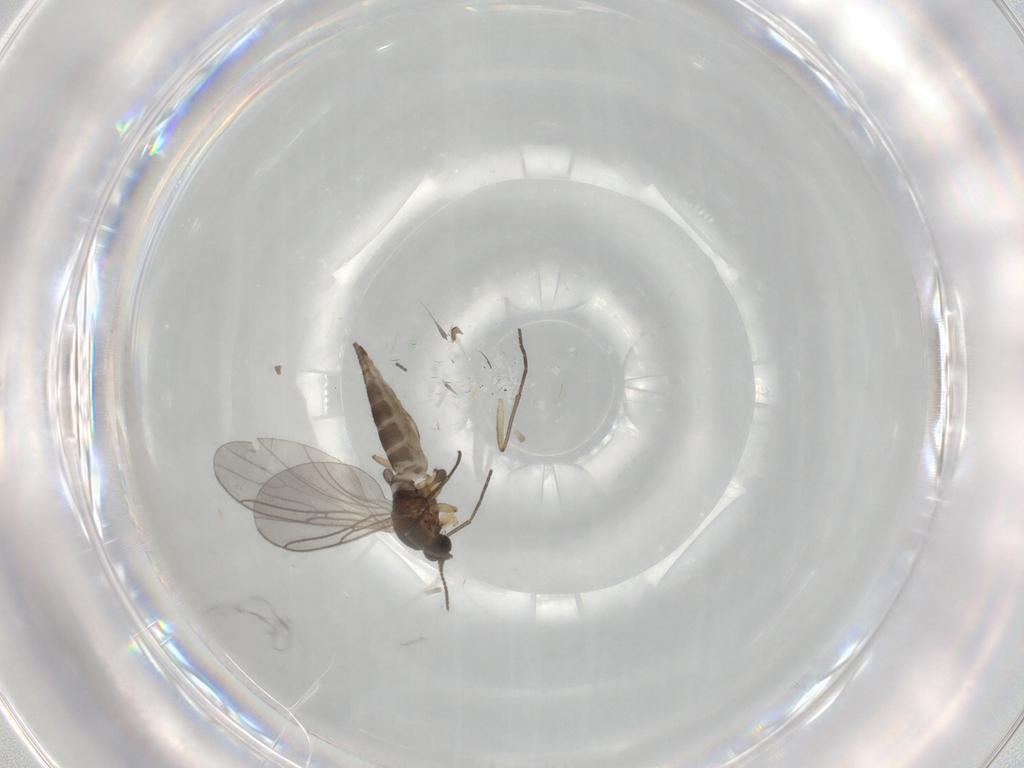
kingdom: Animalia
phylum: Arthropoda
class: Insecta
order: Diptera
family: Sciaridae
